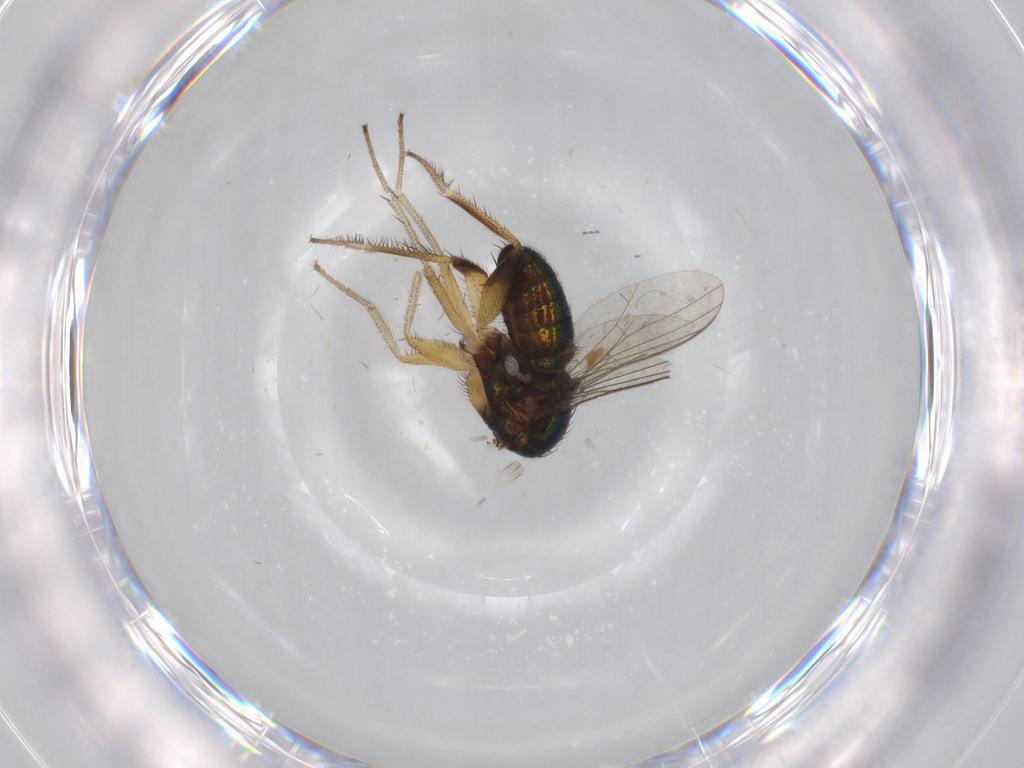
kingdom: Animalia
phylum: Arthropoda
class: Insecta
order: Diptera
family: Dolichopodidae
